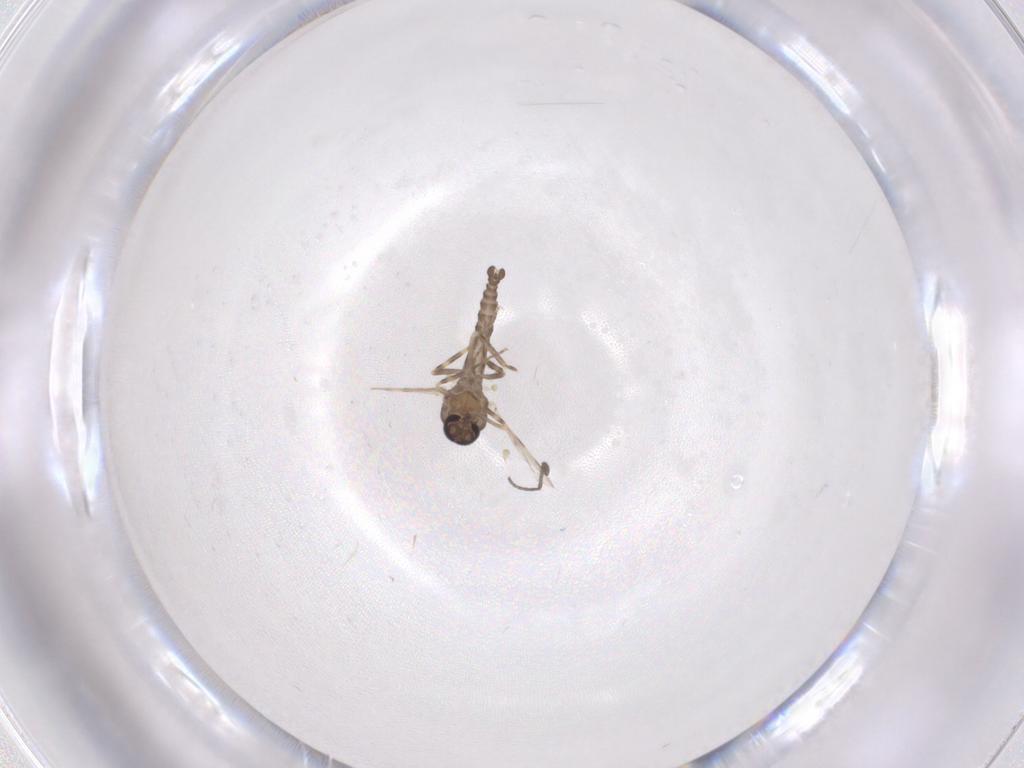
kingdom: Animalia
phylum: Arthropoda
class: Insecta
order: Diptera
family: Ceratopogonidae
